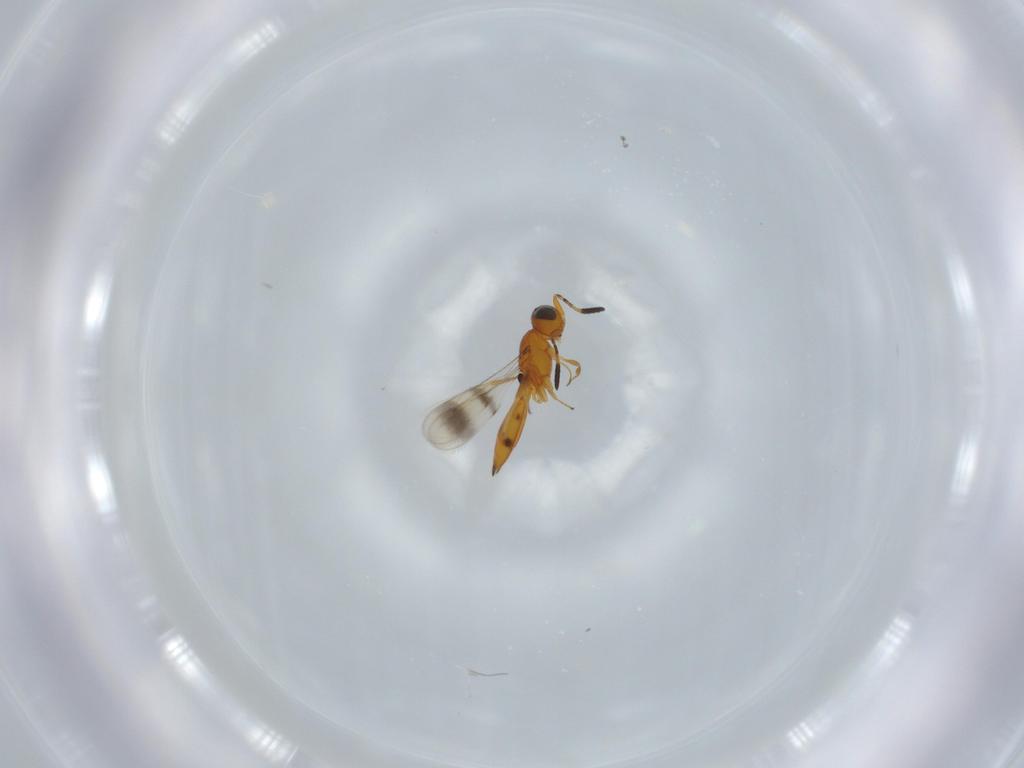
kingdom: Animalia
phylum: Arthropoda
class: Insecta
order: Hymenoptera
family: Scelionidae
